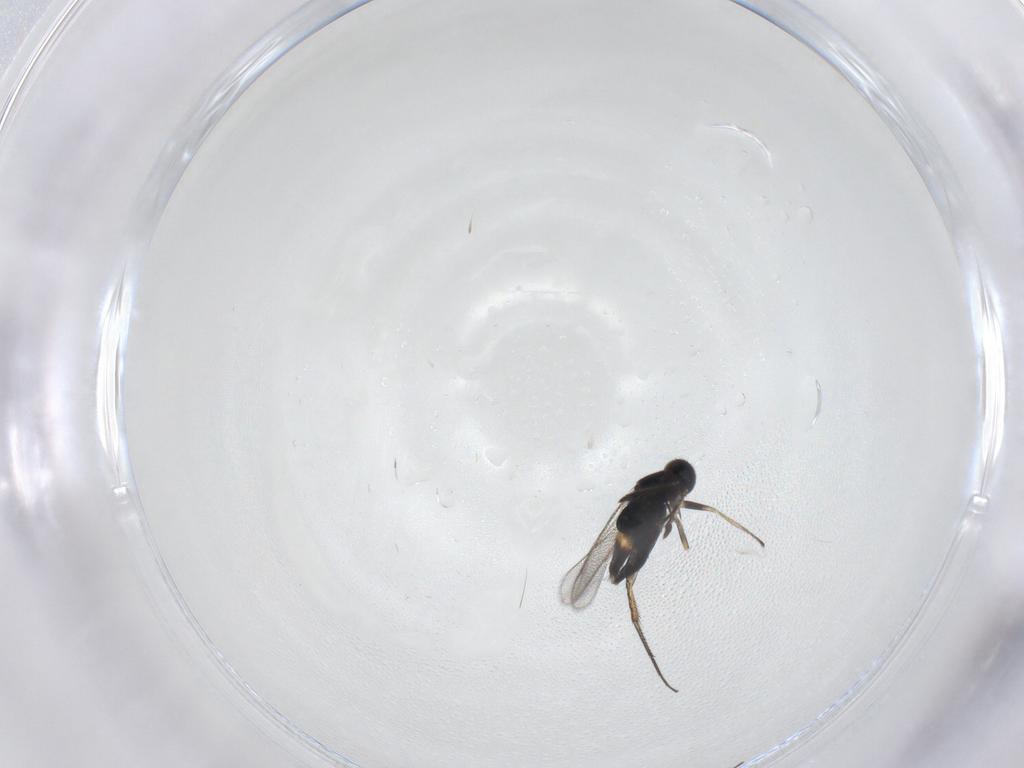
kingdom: Animalia
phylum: Arthropoda
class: Insecta
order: Hymenoptera
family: Eulophidae
